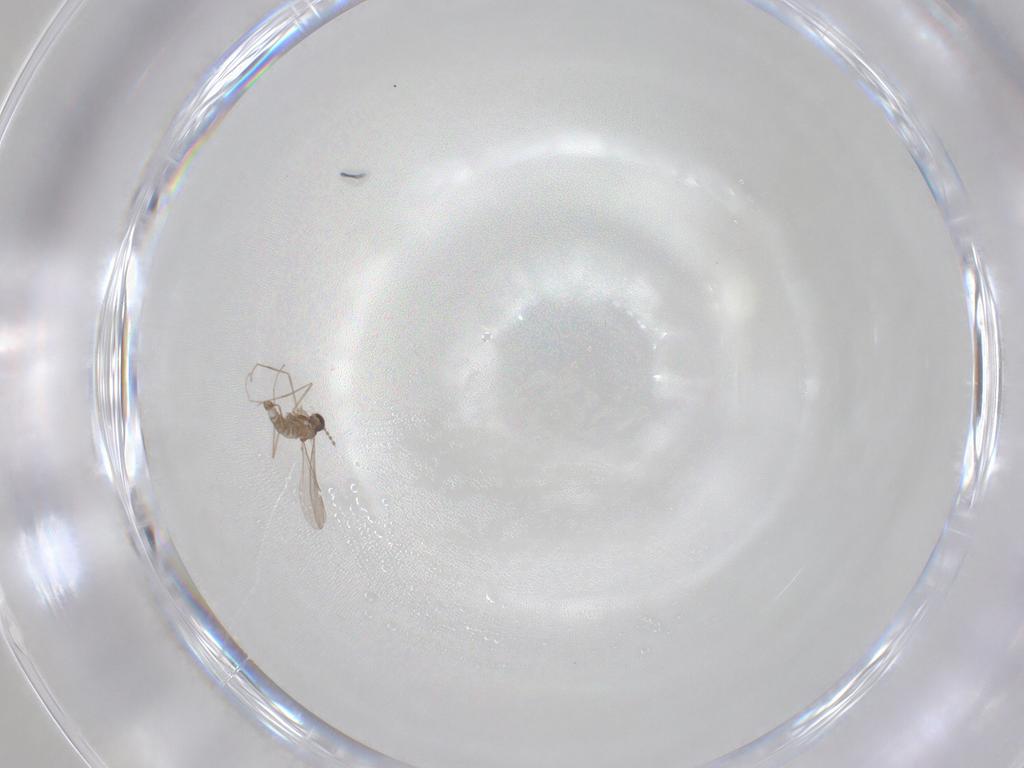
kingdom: Animalia
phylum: Arthropoda
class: Insecta
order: Diptera
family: Cecidomyiidae
